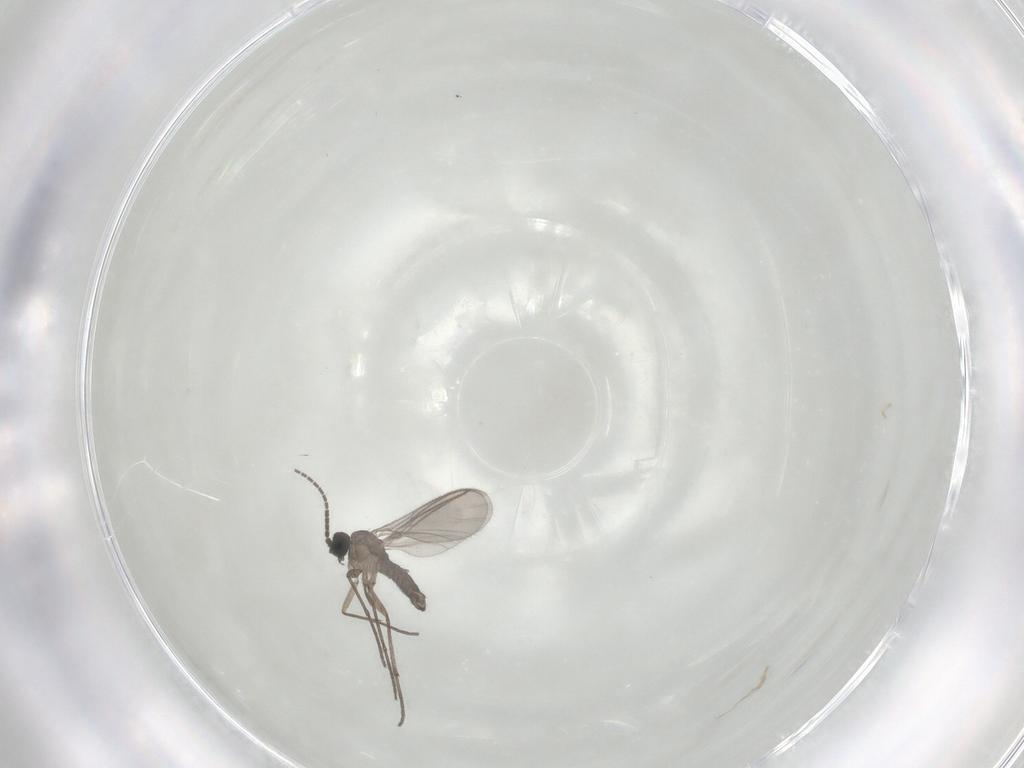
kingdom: Animalia
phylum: Arthropoda
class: Insecta
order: Diptera
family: Sciaridae
